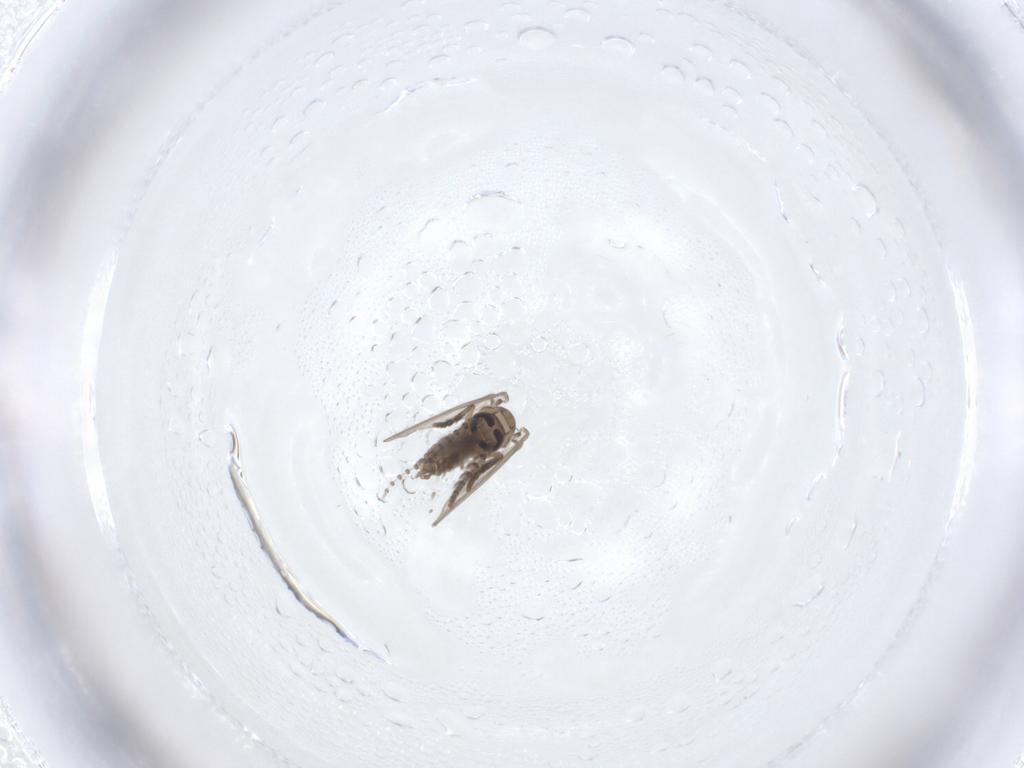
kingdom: Animalia
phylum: Arthropoda
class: Insecta
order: Diptera
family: Psychodidae
